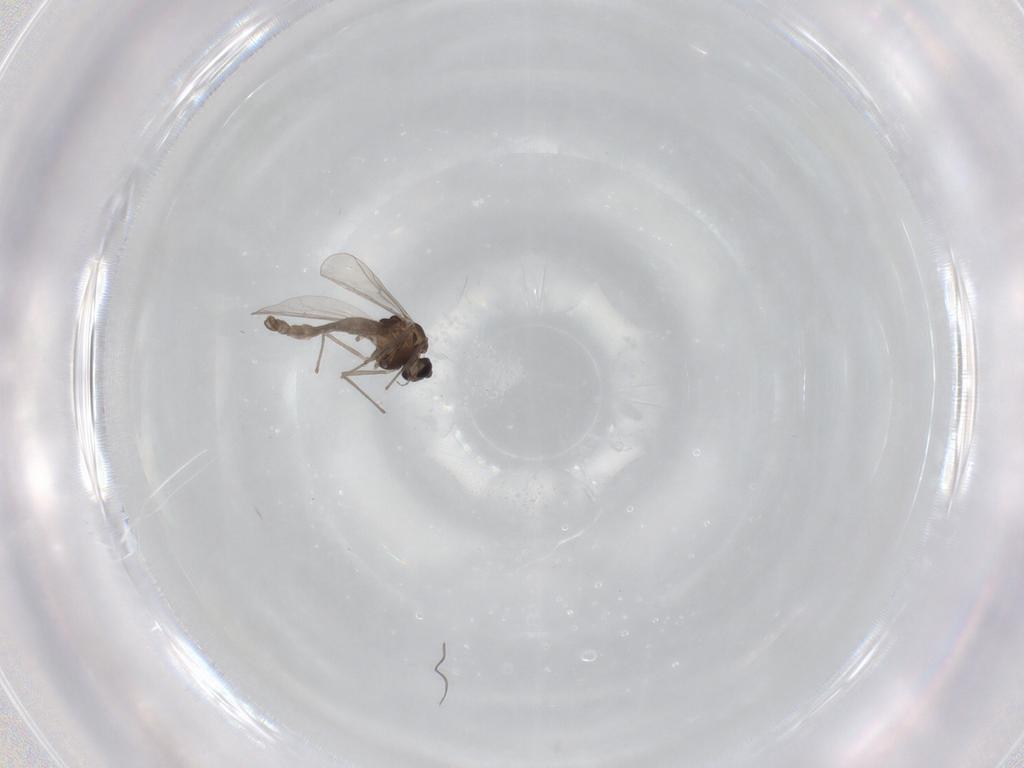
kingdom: Animalia
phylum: Arthropoda
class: Insecta
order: Diptera
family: Chironomidae
